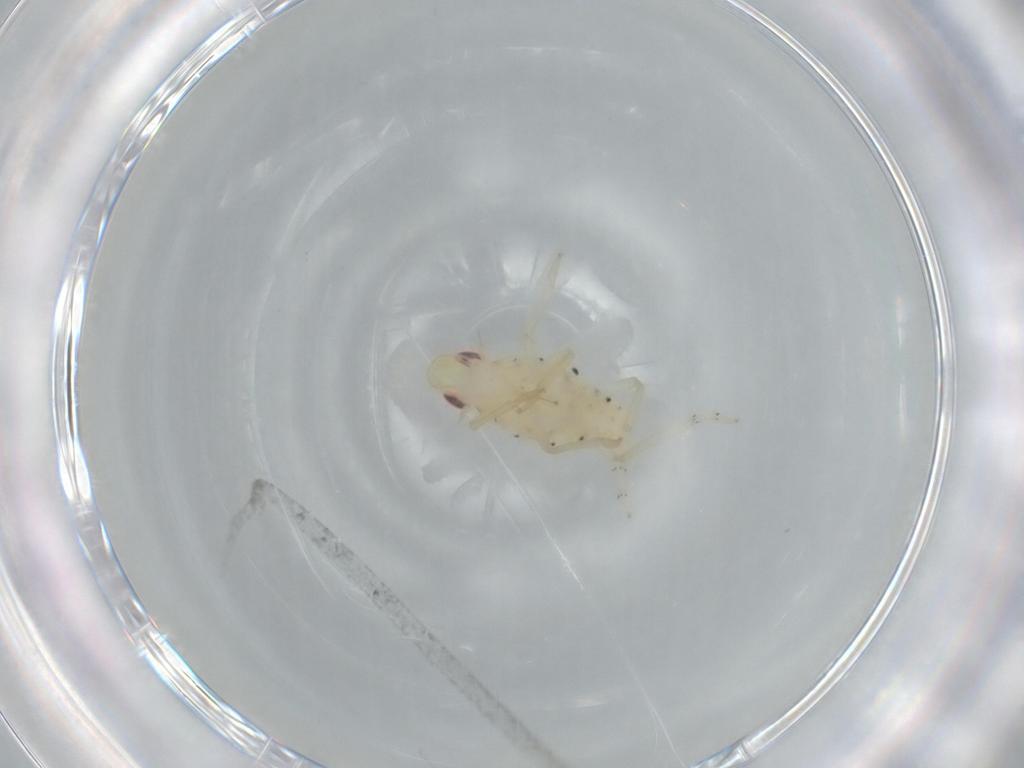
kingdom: Animalia
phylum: Arthropoda
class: Insecta
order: Hemiptera
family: Tropiduchidae
